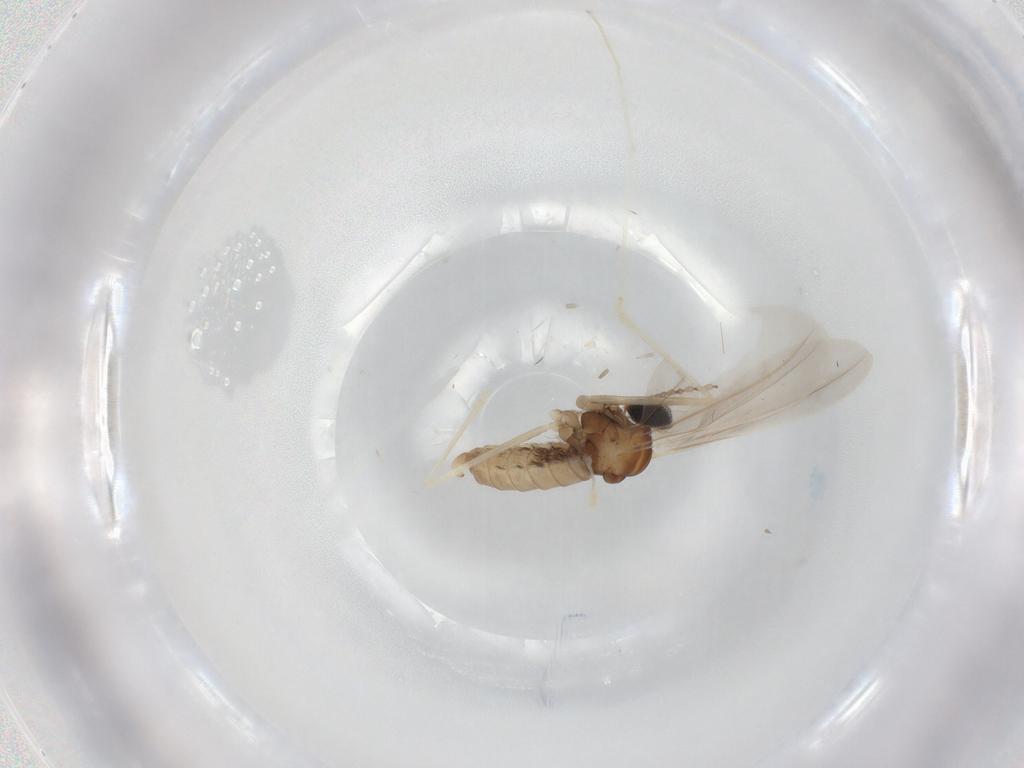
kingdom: Animalia
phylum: Arthropoda
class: Insecta
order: Diptera
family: Cecidomyiidae
